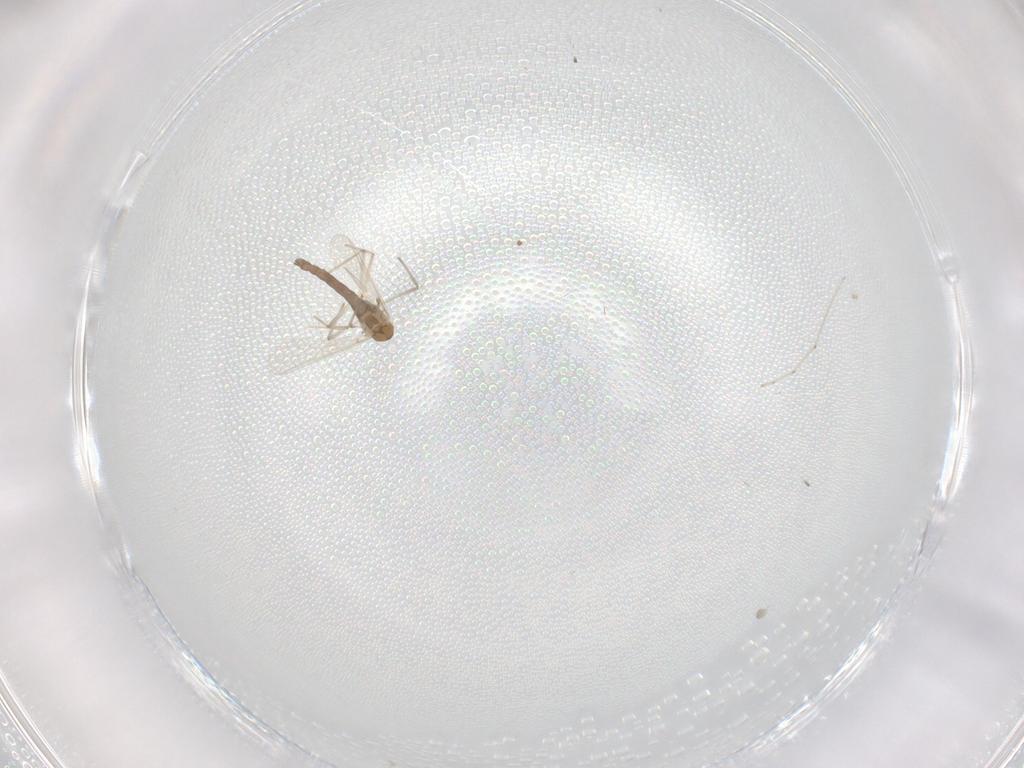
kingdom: Animalia
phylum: Arthropoda
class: Insecta
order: Diptera
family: Chironomidae
